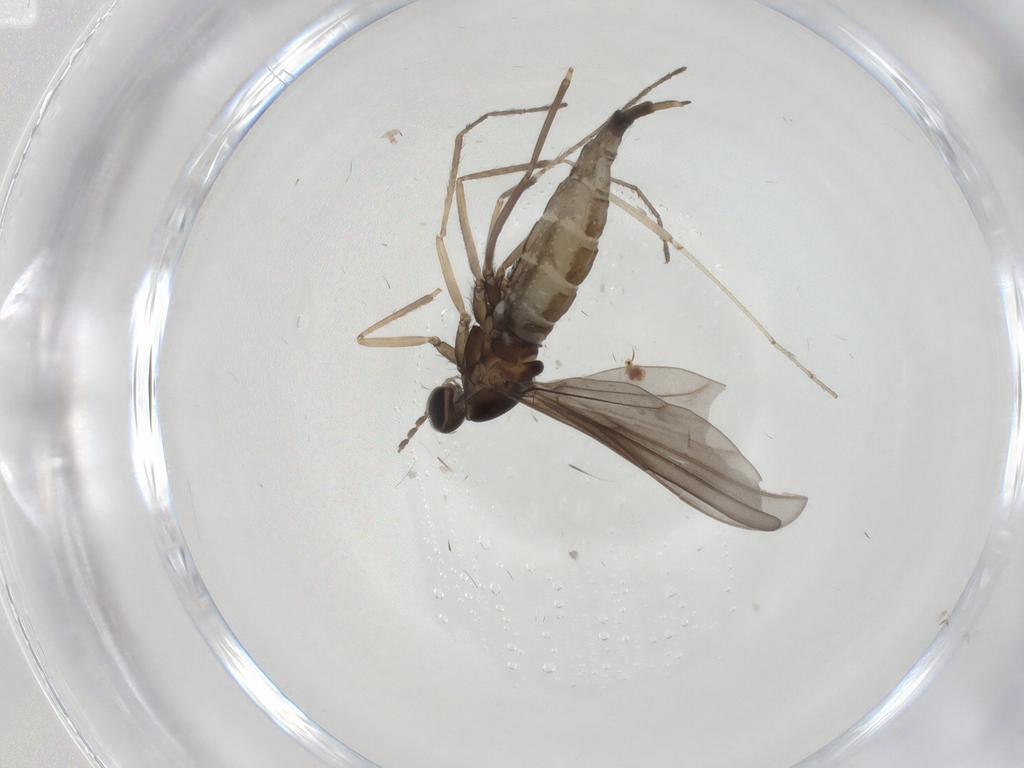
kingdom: Animalia
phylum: Arthropoda
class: Insecta
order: Diptera
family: Cecidomyiidae
